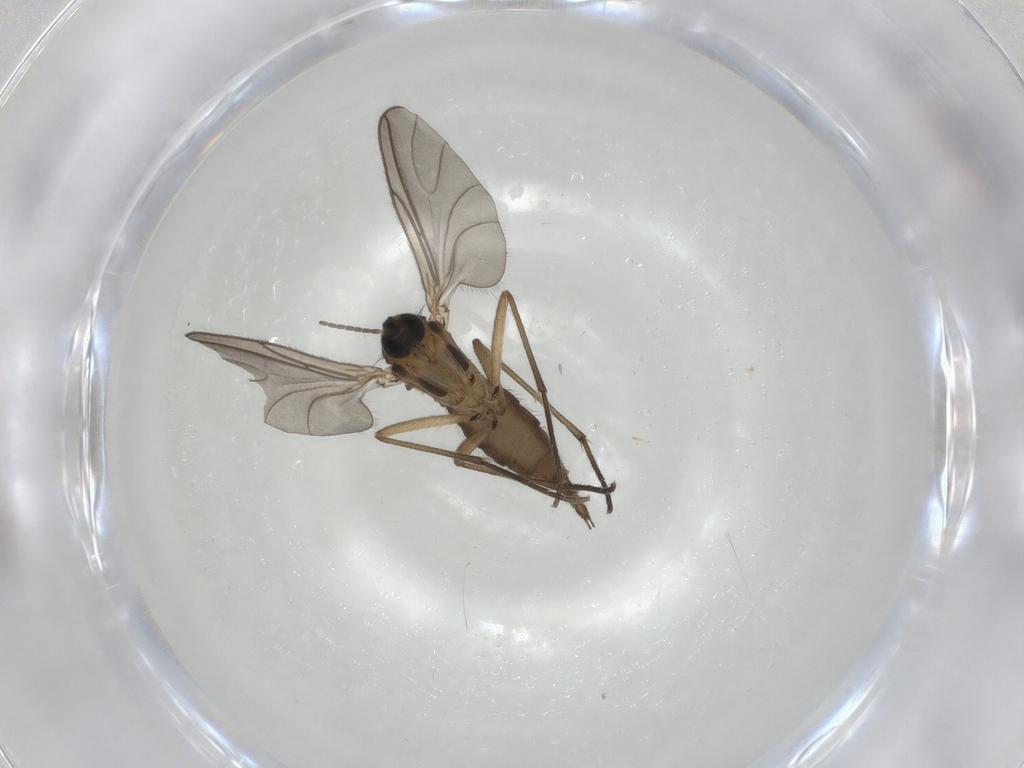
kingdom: Animalia
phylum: Arthropoda
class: Insecta
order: Diptera
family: Sciaridae
